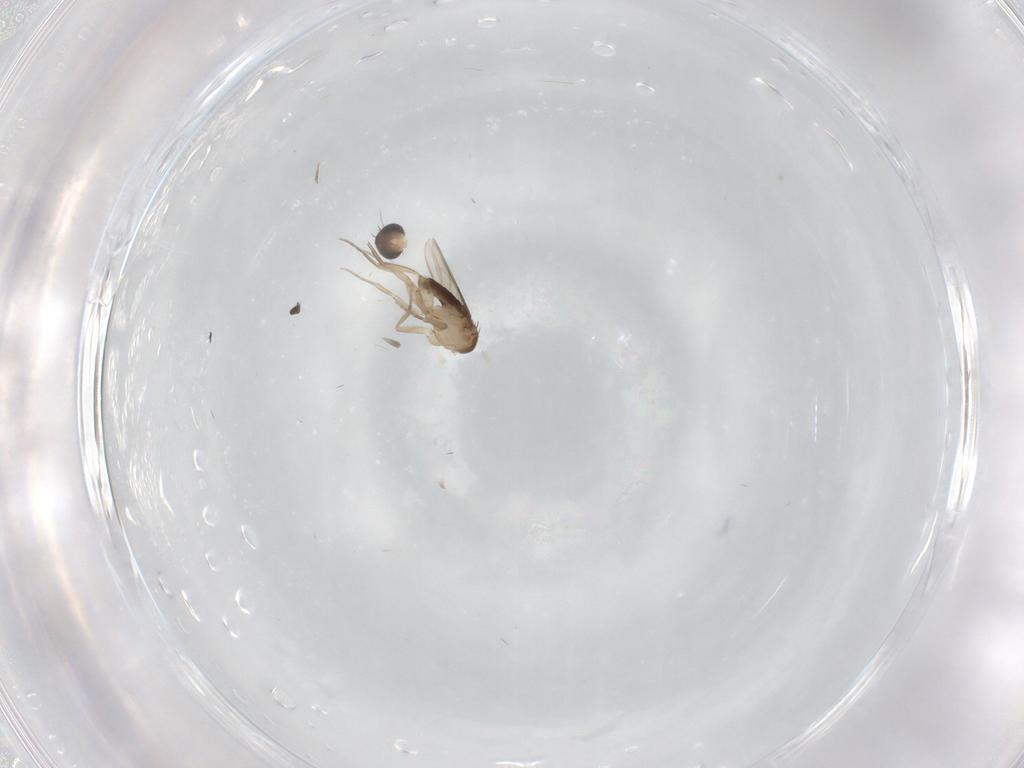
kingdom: Animalia
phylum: Arthropoda
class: Insecta
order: Diptera
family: Phoridae
